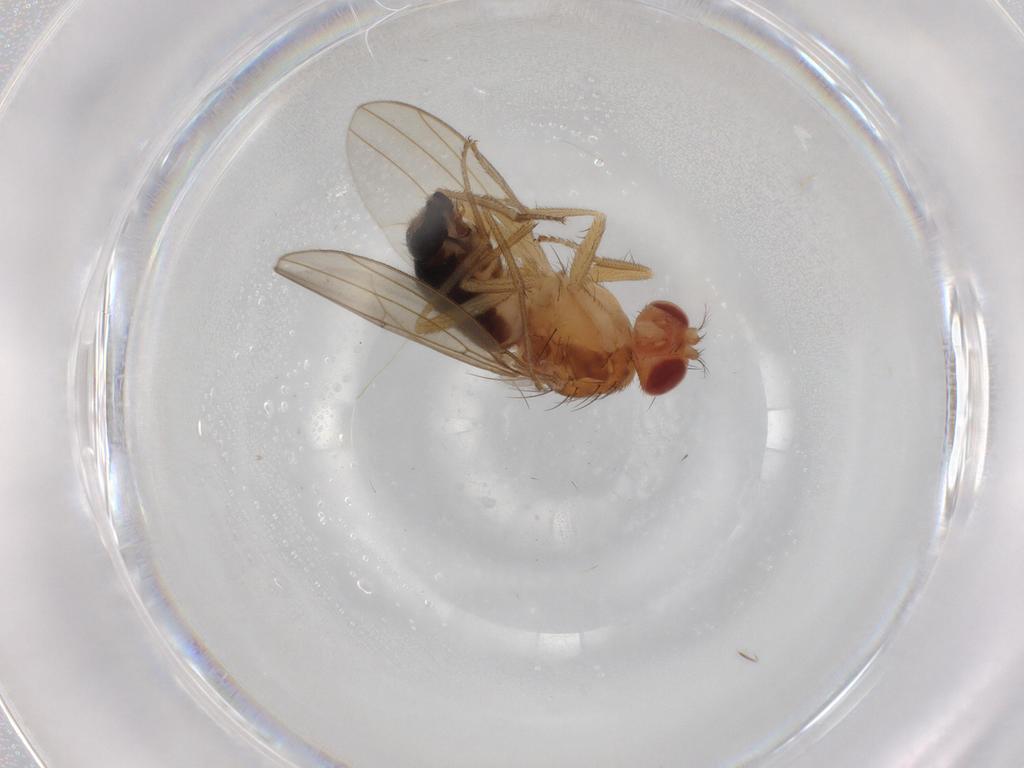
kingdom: Animalia
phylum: Arthropoda
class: Insecta
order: Diptera
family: Drosophilidae
